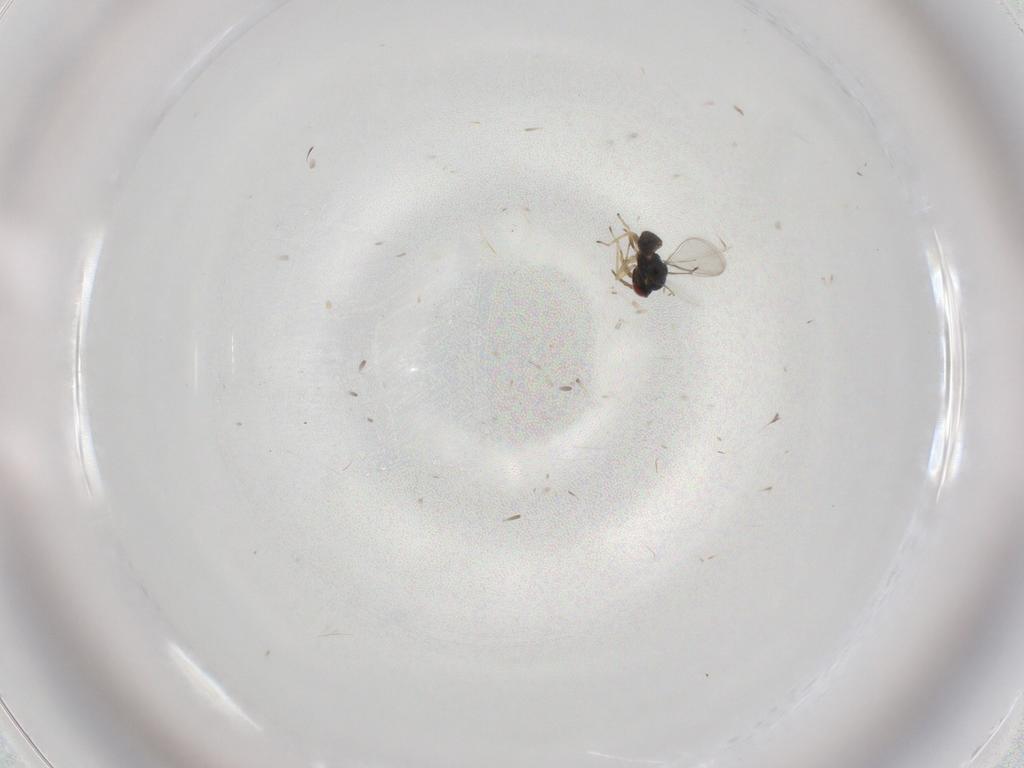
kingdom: Animalia
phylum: Arthropoda
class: Insecta
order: Hymenoptera
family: Eulophidae
